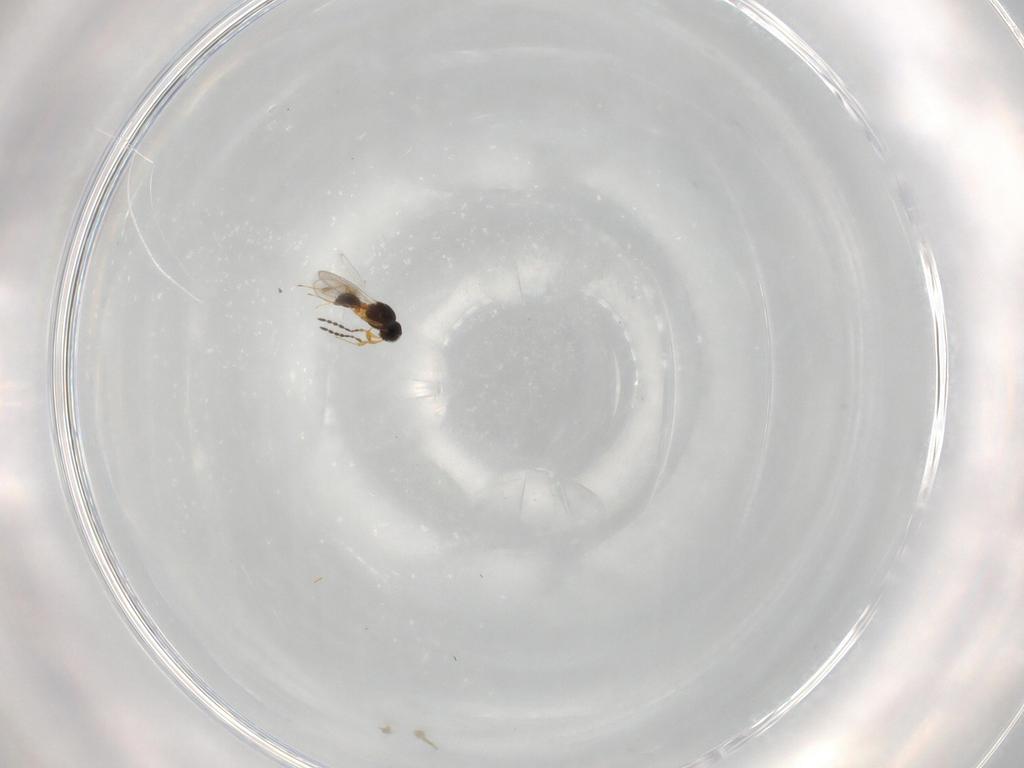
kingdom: Animalia
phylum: Arthropoda
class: Insecta
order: Hymenoptera
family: Platygastridae
